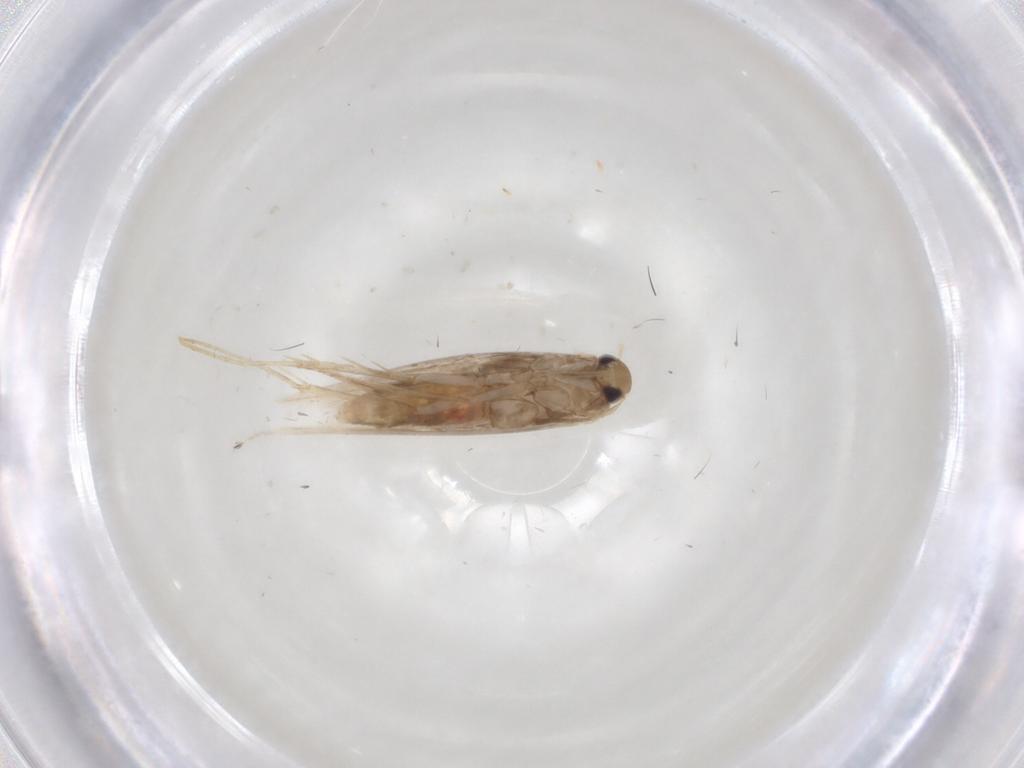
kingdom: Animalia
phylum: Arthropoda
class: Insecta
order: Lepidoptera
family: Gracillariidae
